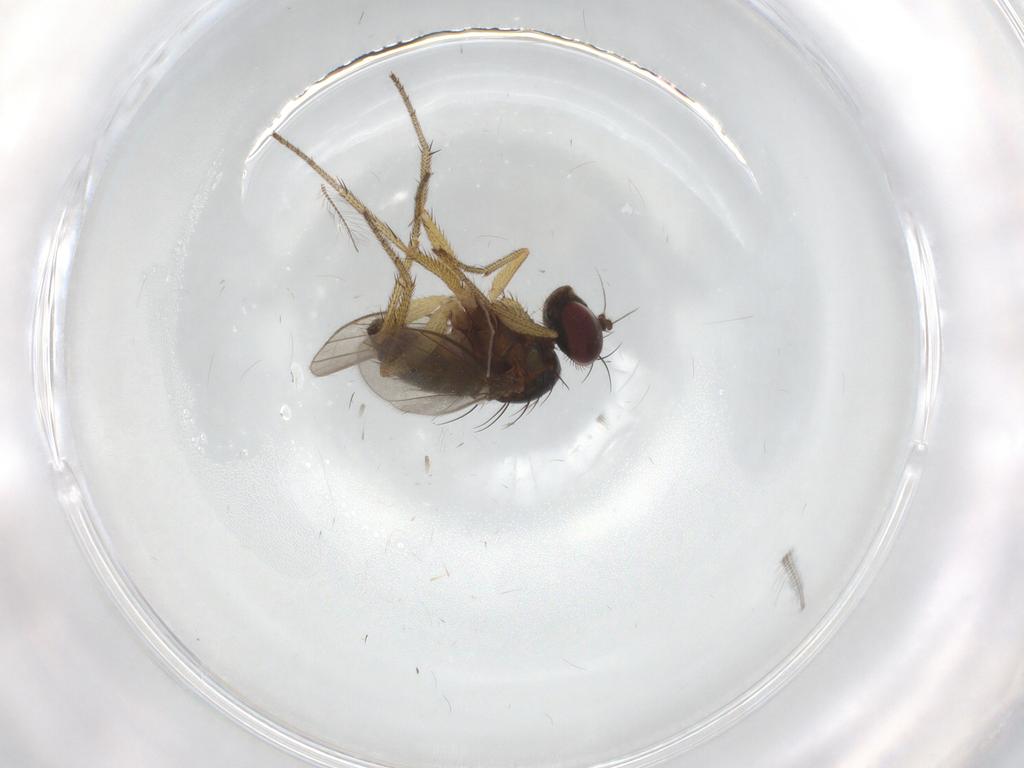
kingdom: Animalia
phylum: Arthropoda
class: Insecta
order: Diptera
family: Chironomidae
